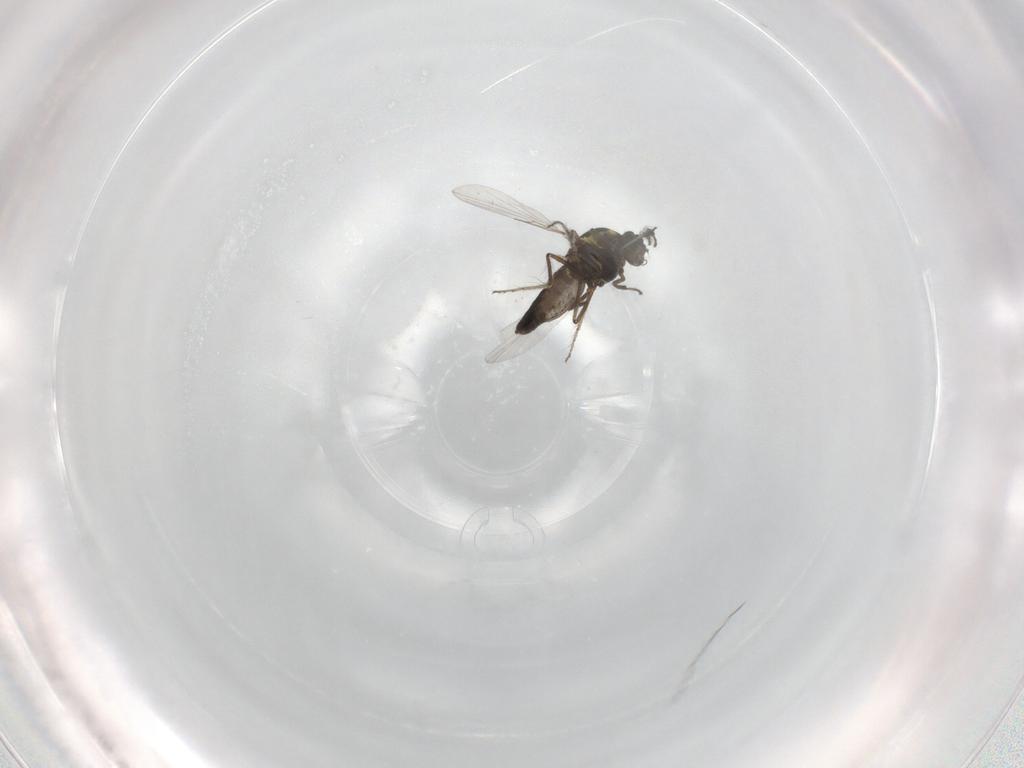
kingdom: Animalia
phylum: Arthropoda
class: Insecta
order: Diptera
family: Ceratopogonidae
